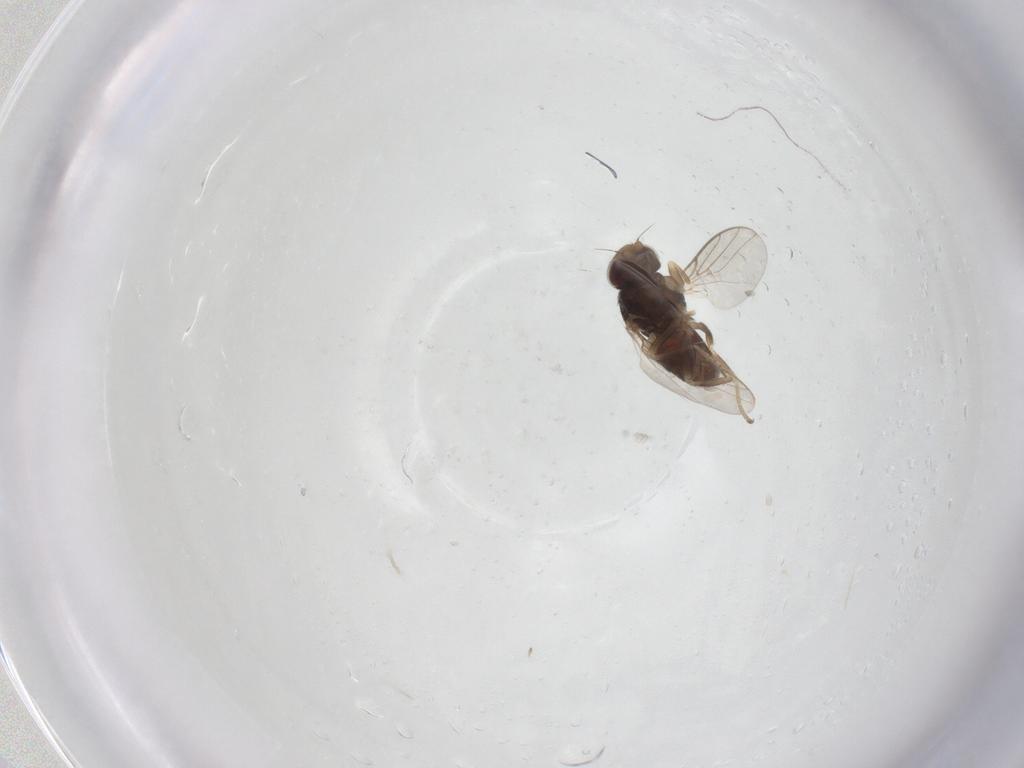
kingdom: Animalia
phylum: Arthropoda
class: Insecta
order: Diptera
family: Chloropidae
